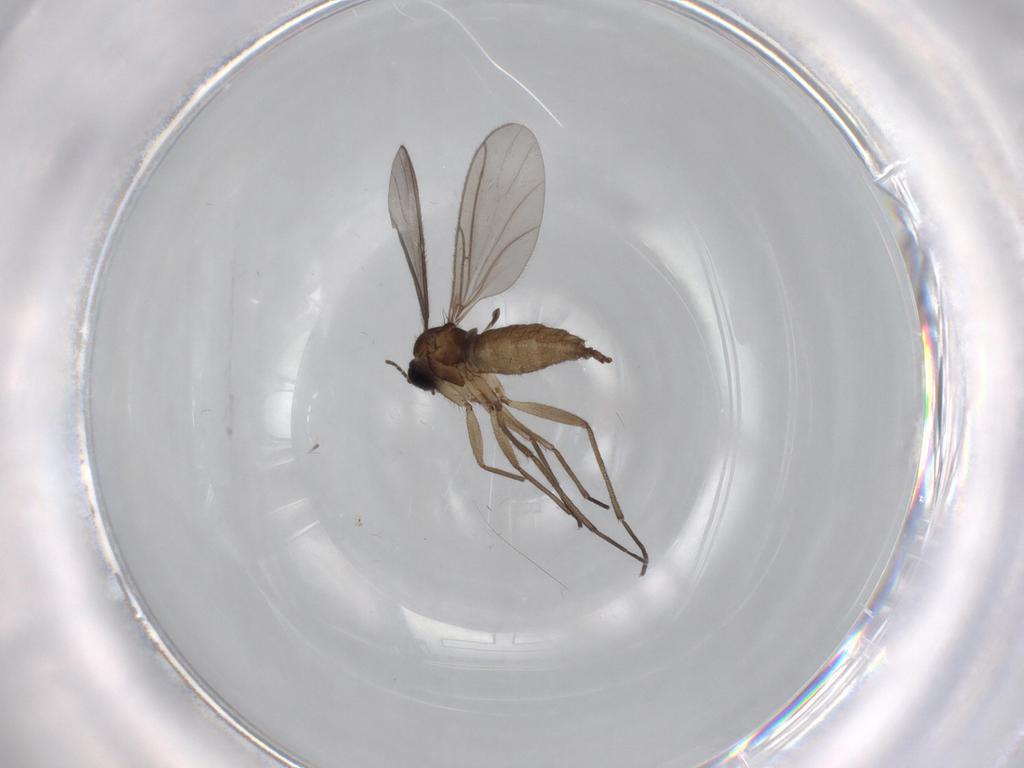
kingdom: Animalia
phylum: Arthropoda
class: Insecta
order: Diptera
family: Sciaridae
